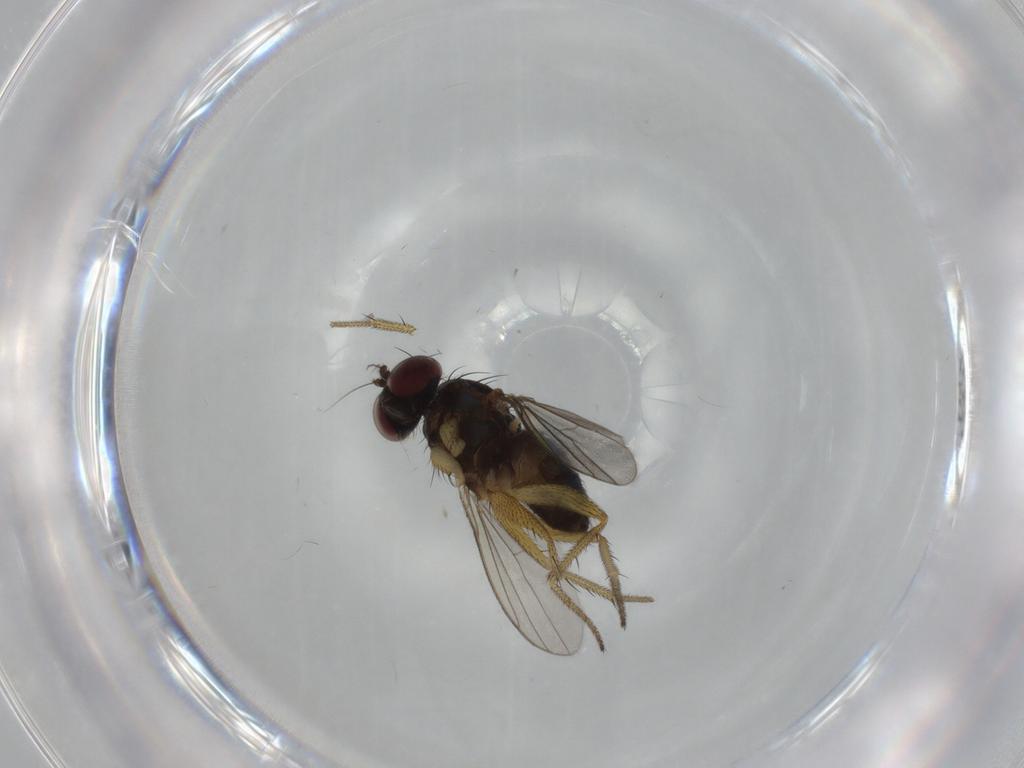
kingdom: Animalia
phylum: Arthropoda
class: Insecta
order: Diptera
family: Dolichopodidae
